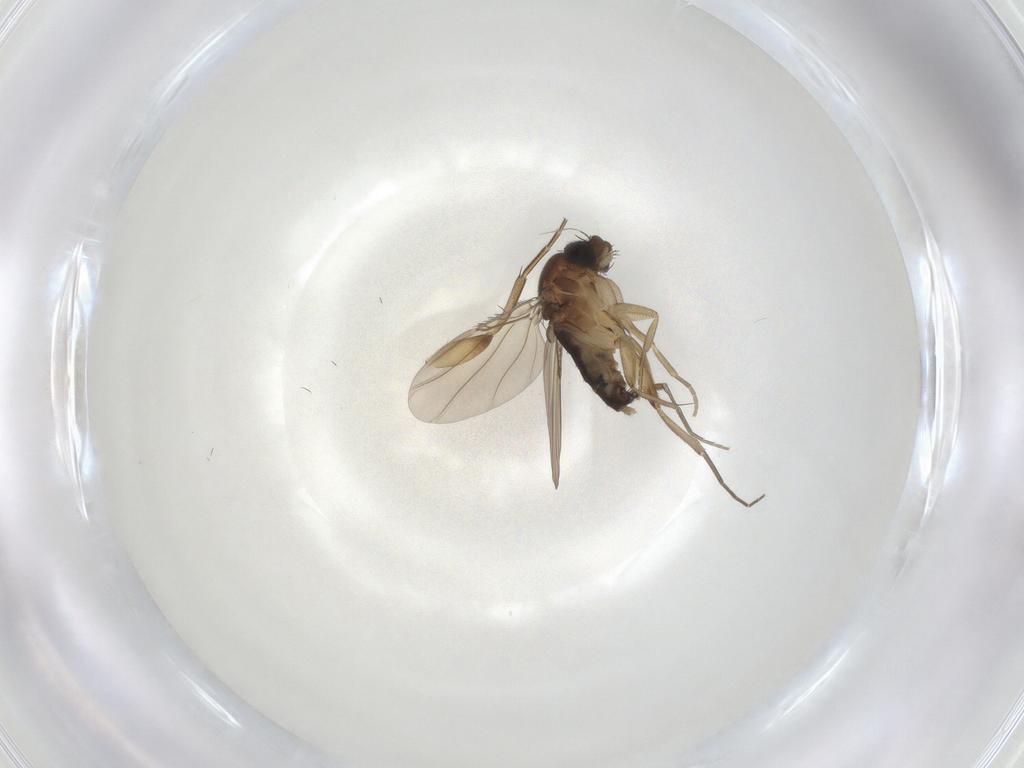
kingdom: Animalia
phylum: Arthropoda
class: Insecta
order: Diptera
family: Phoridae
